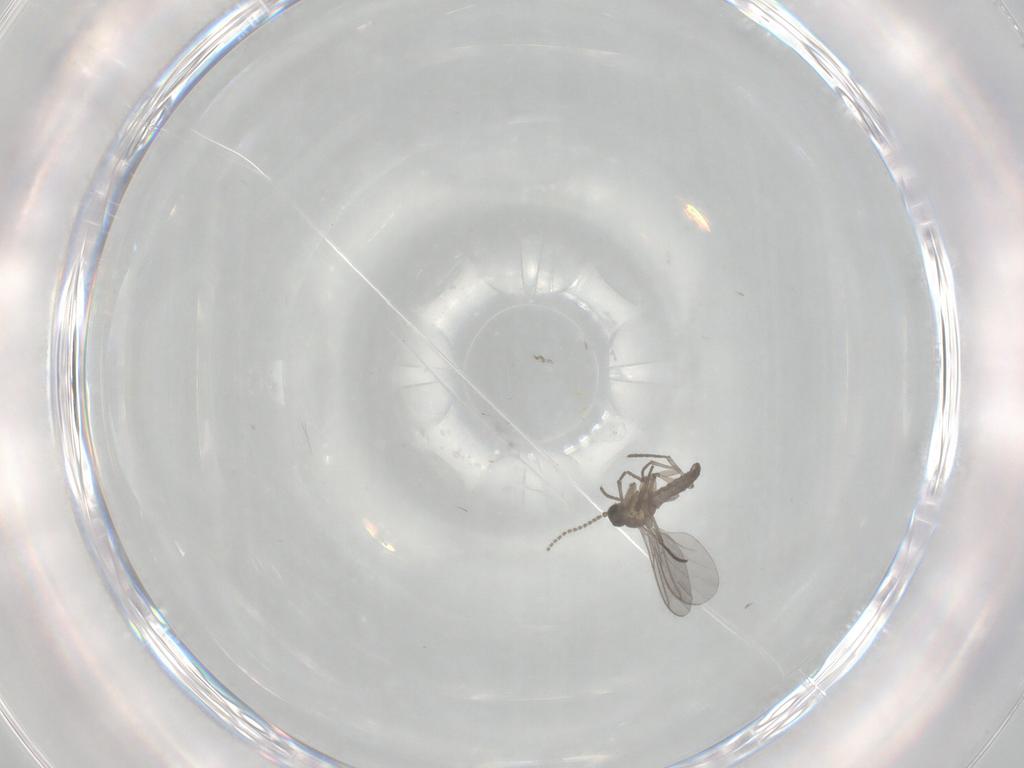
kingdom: Animalia
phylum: Arthropoda
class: Insecta
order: Diptera
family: Sciaridae
